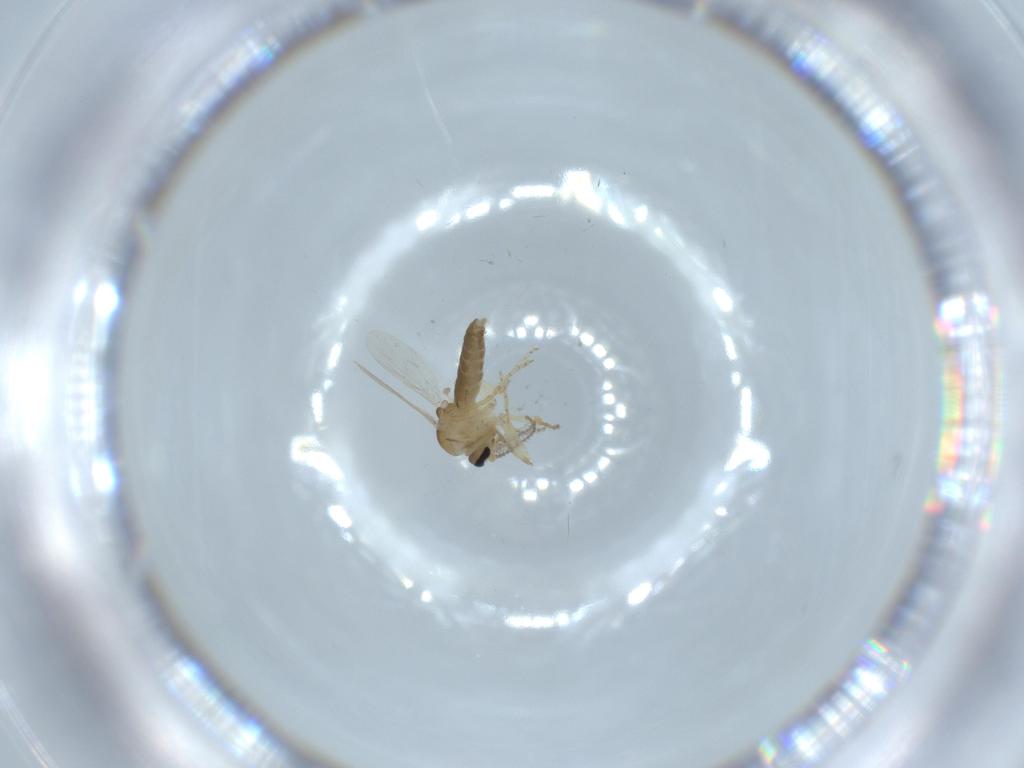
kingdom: Animalia
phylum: Arthropoda
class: Insecta
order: Diptera
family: Ceratopogonidae
